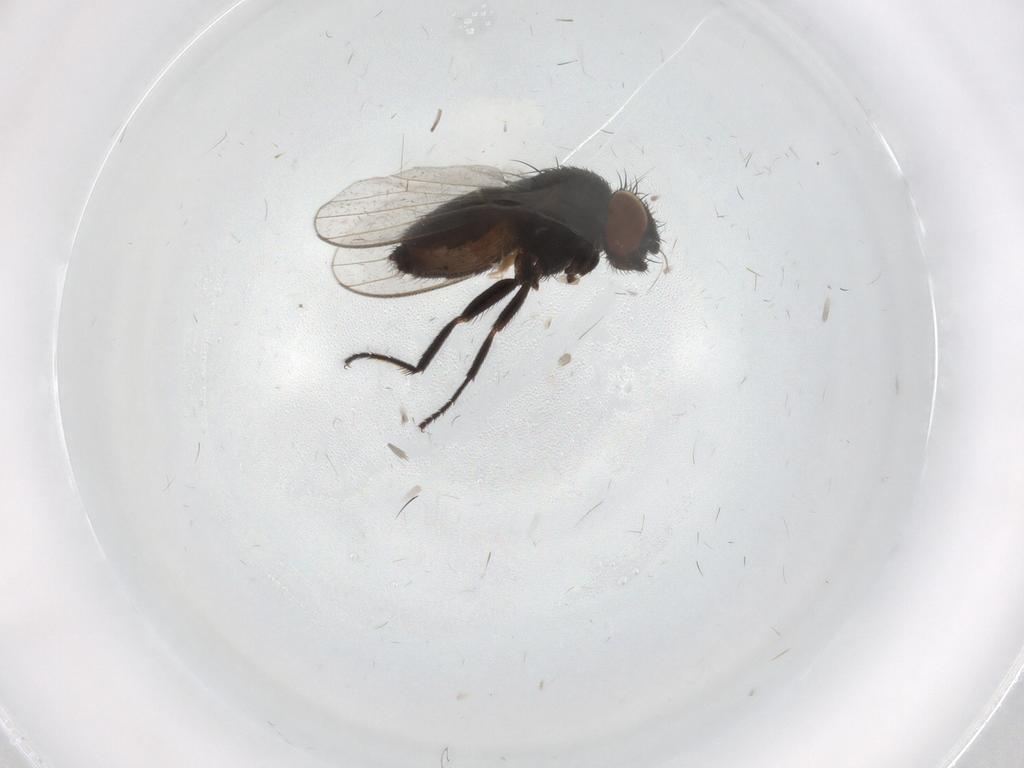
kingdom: Animalia
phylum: Arthropoda
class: Insecta
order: Diptera
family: Milichiidae
